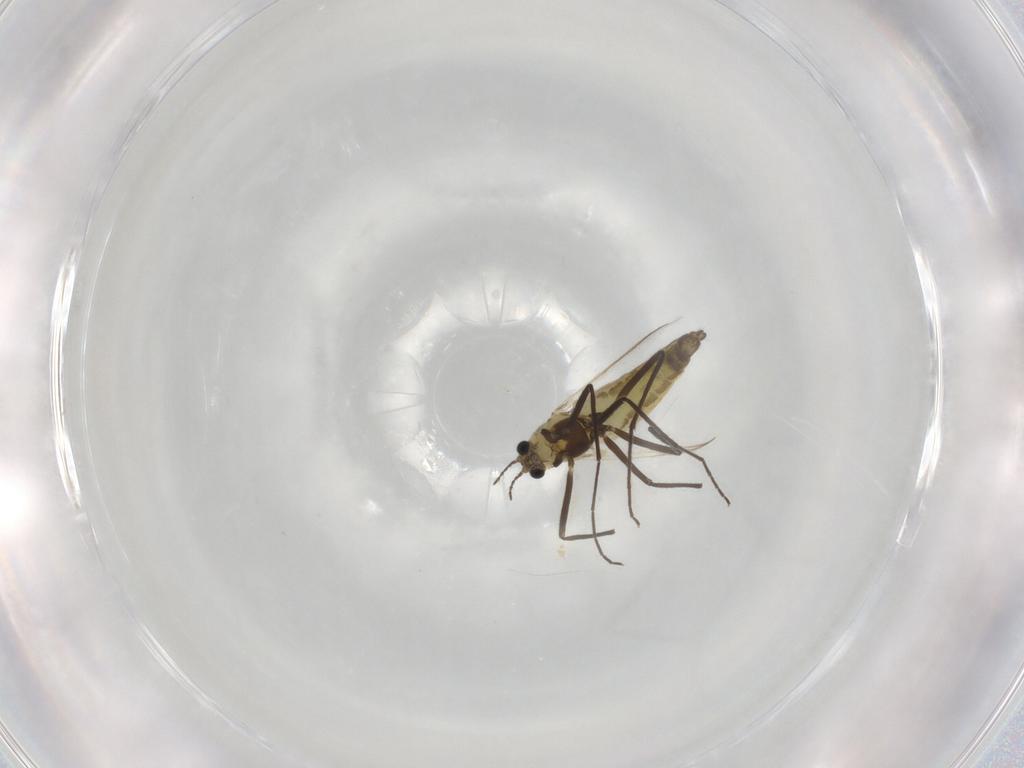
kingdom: Animalia
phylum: Arthropoda
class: Insecta
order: Diptera
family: Chironomidae
